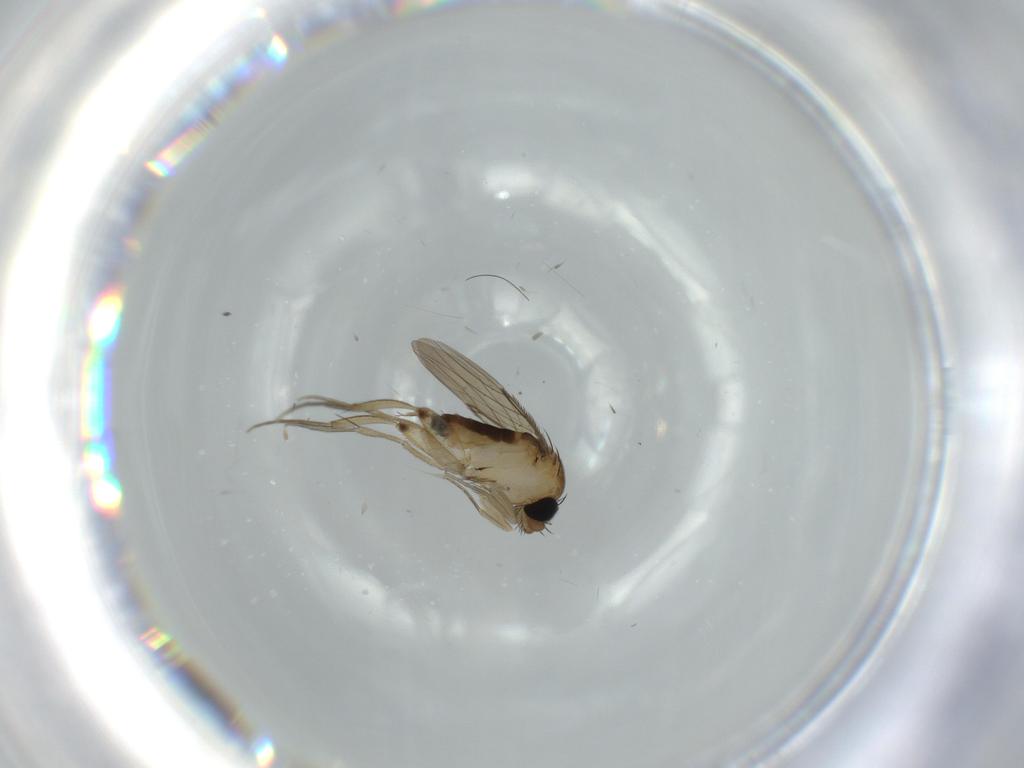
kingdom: Animalia
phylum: Arthropoda
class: Insecta
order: Diptera
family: Phoridae
